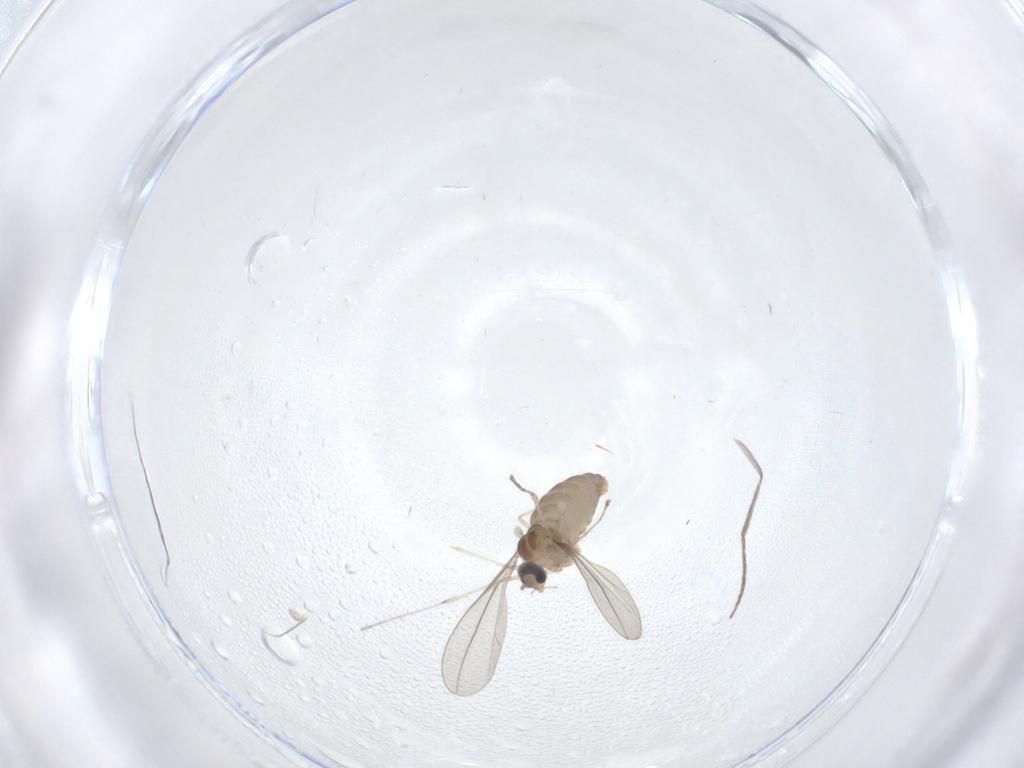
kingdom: Animalia
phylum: Arthropoda
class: Insecta
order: Diptera
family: Cecidomyiidae
